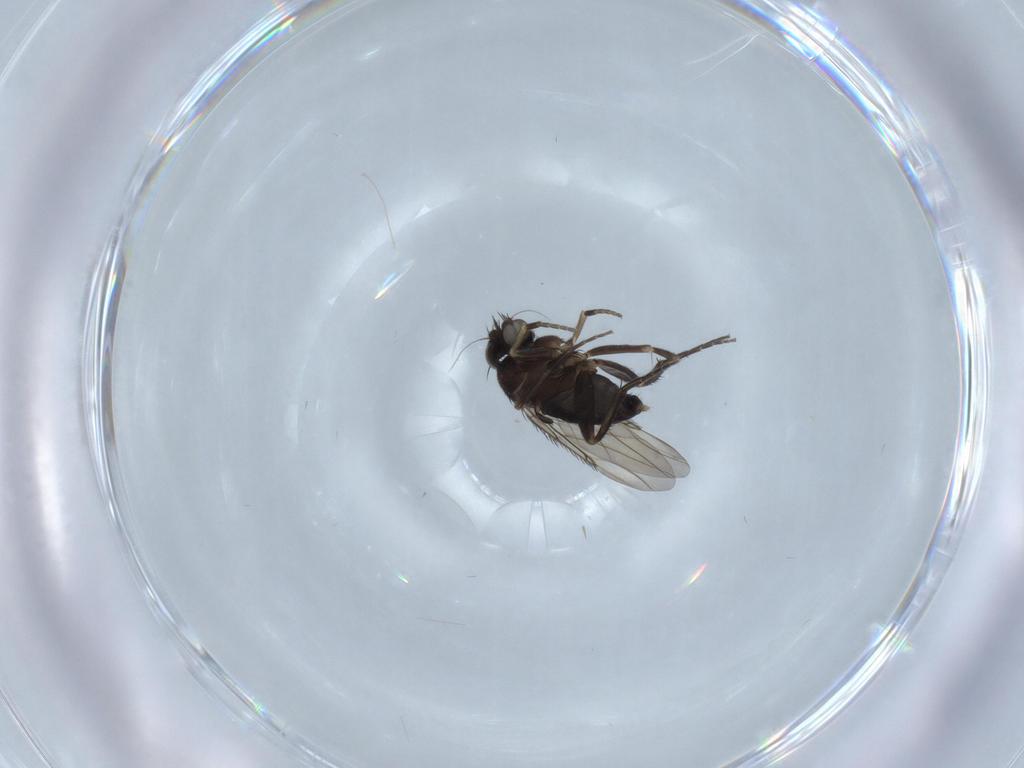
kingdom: Animalia
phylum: Arthropoda
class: Insecta
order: Diptera
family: Phoridae
